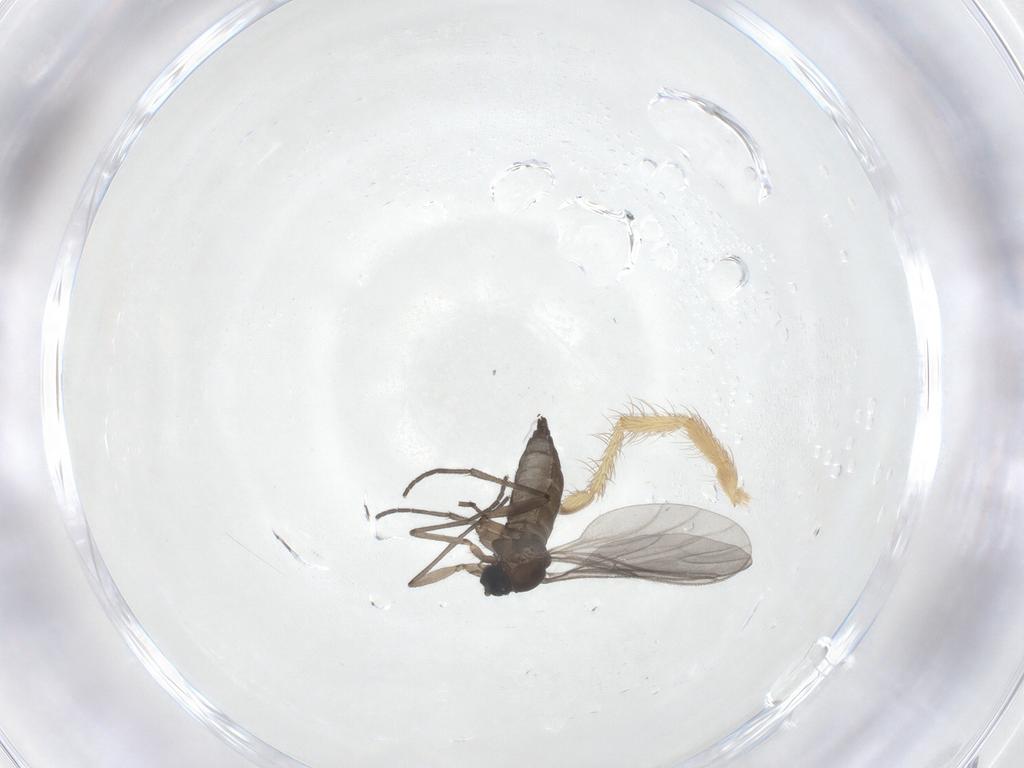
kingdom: Animalia
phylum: Arthropoda
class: Insecta
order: Diptera
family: Sciaridae
